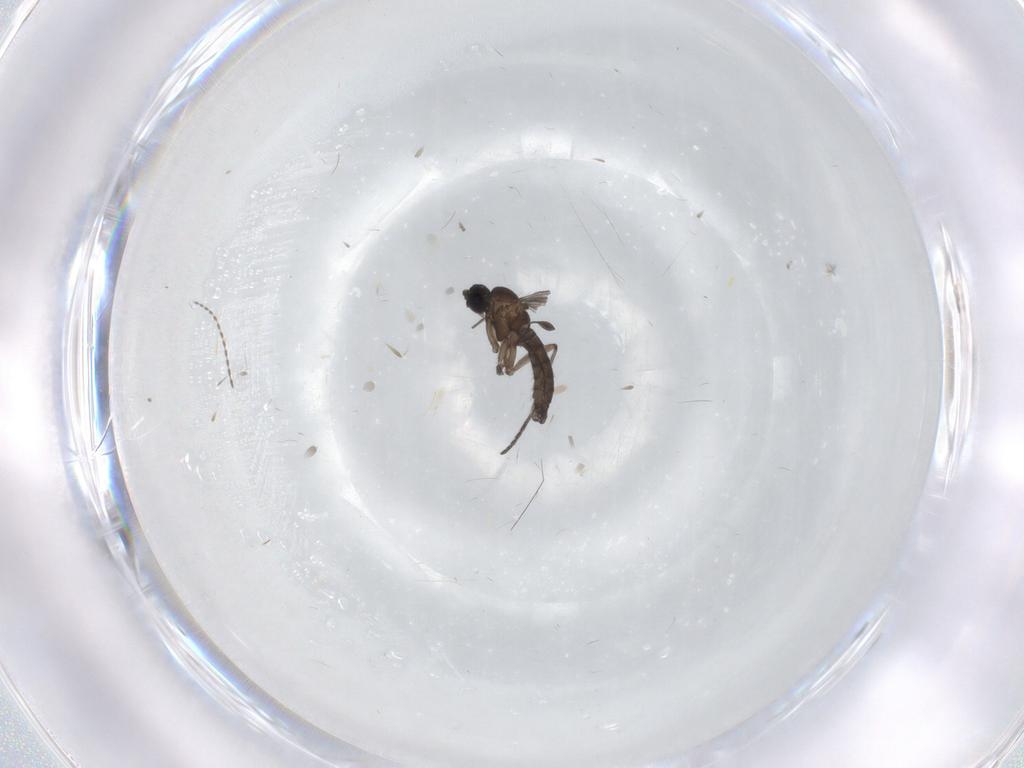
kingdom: Animalia
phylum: Arthropoda
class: Insecta
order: Diptera
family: Cecidomyiidae
